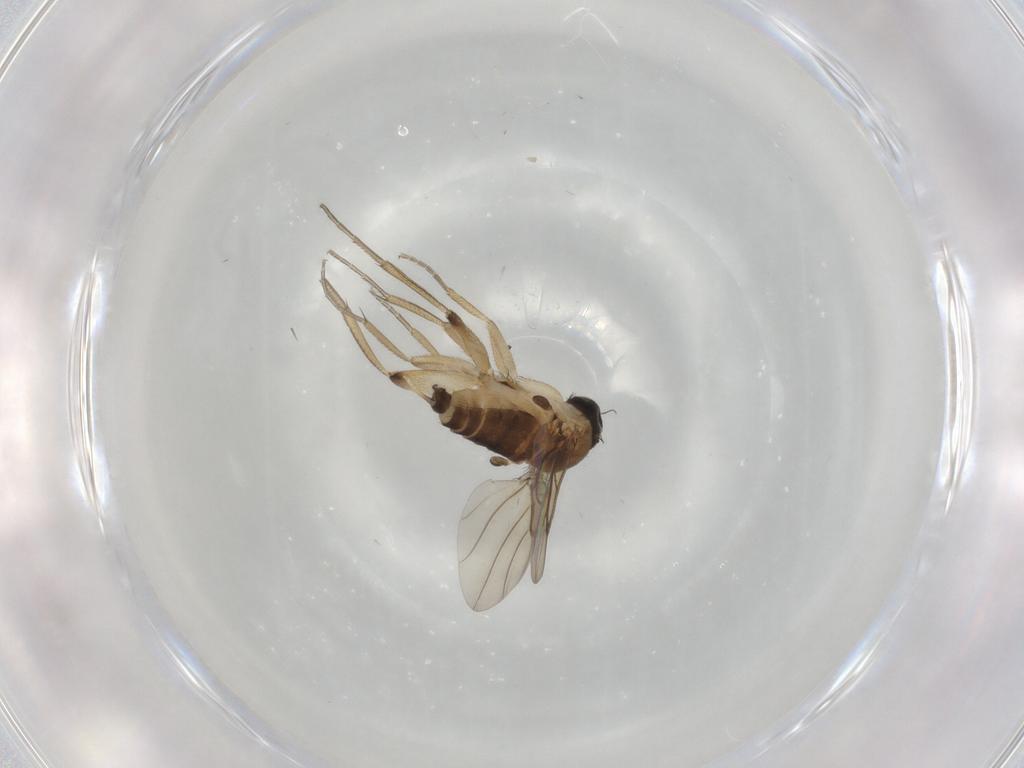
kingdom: Animalia
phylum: Arthropoda
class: Insecta
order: Diptera
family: Phoridae
